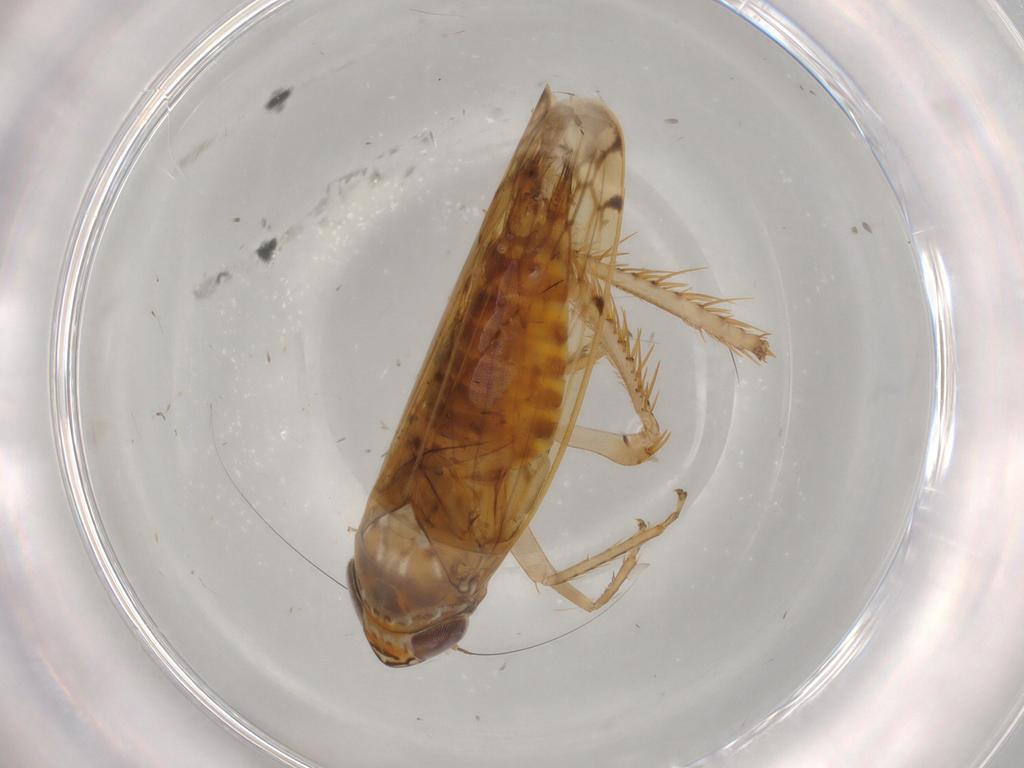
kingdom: Animalia
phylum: Arthropoda
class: Insecta
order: Hemiptera
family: Cicadellidae
